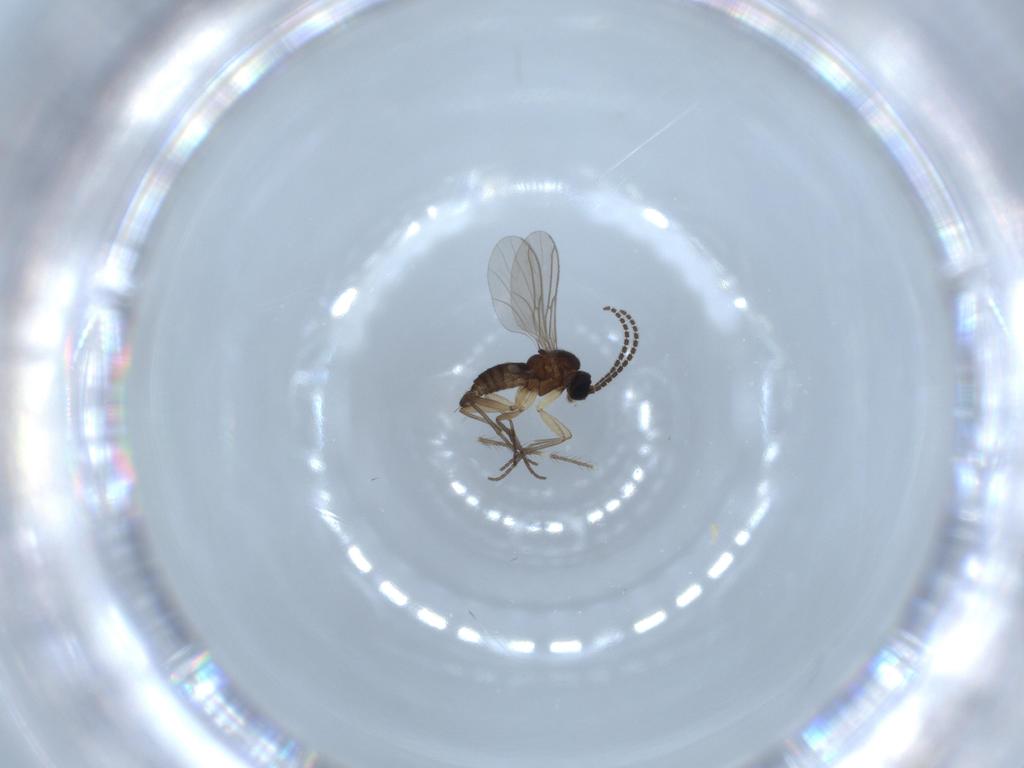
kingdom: Animalia
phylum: Arthropoda
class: Insecta
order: Diptera
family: Sciaridae
